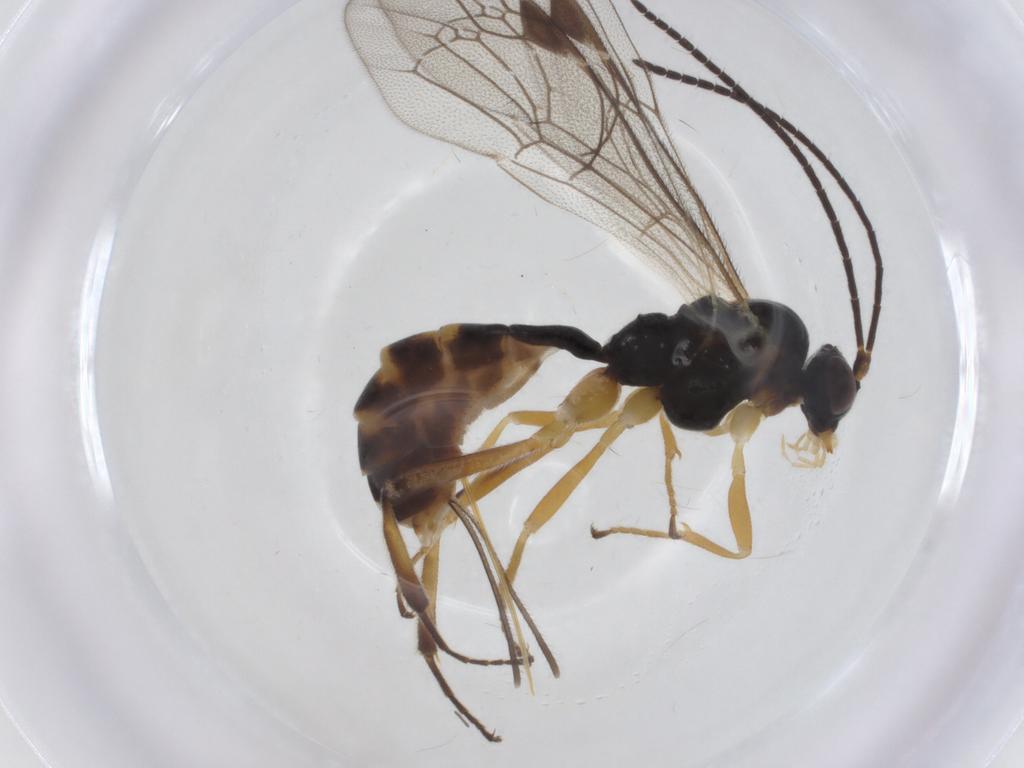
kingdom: Animalia
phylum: Arthropoda
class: Insecta
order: Hymenoptera
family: Ichneumonidae
